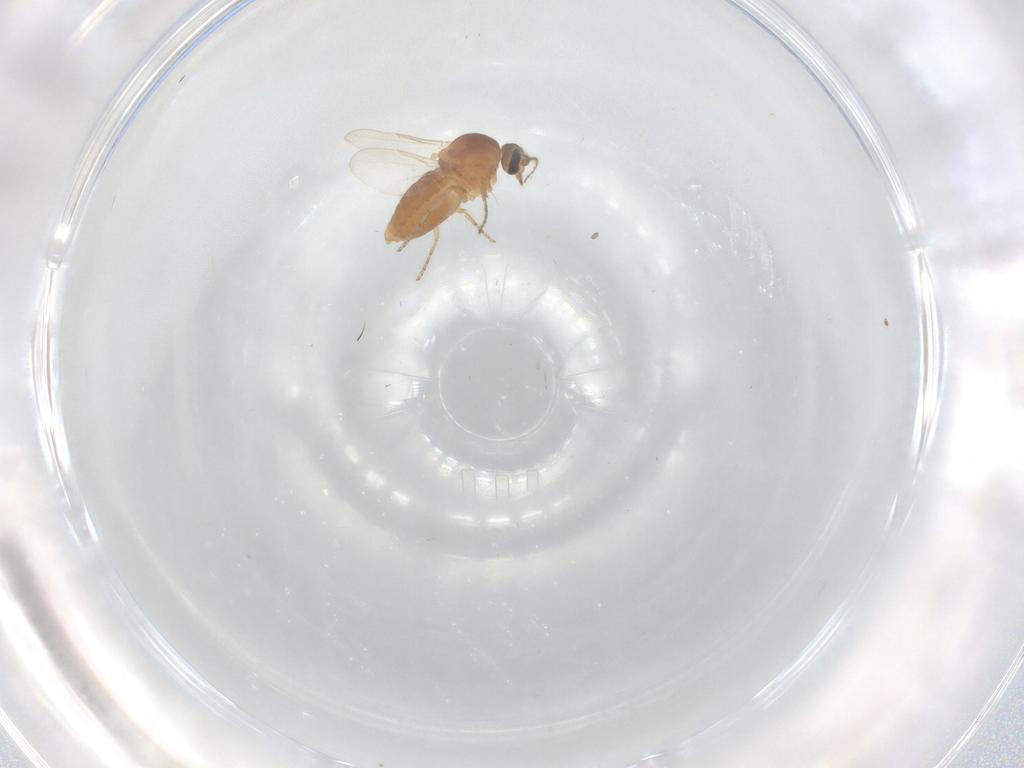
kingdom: Animalia
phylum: Arthropoda
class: Insecta
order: Diptera
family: Ceratopogonidae
